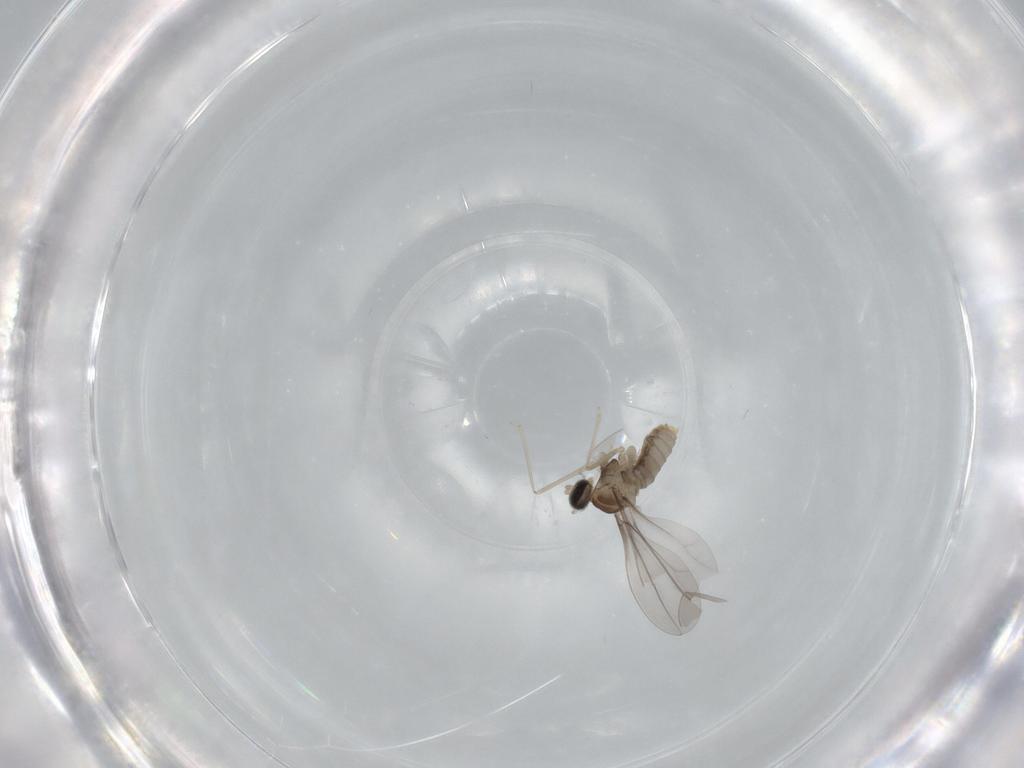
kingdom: Animalia
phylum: Arthropoda
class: Insecta
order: Diptera
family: Cecidomyiidae
